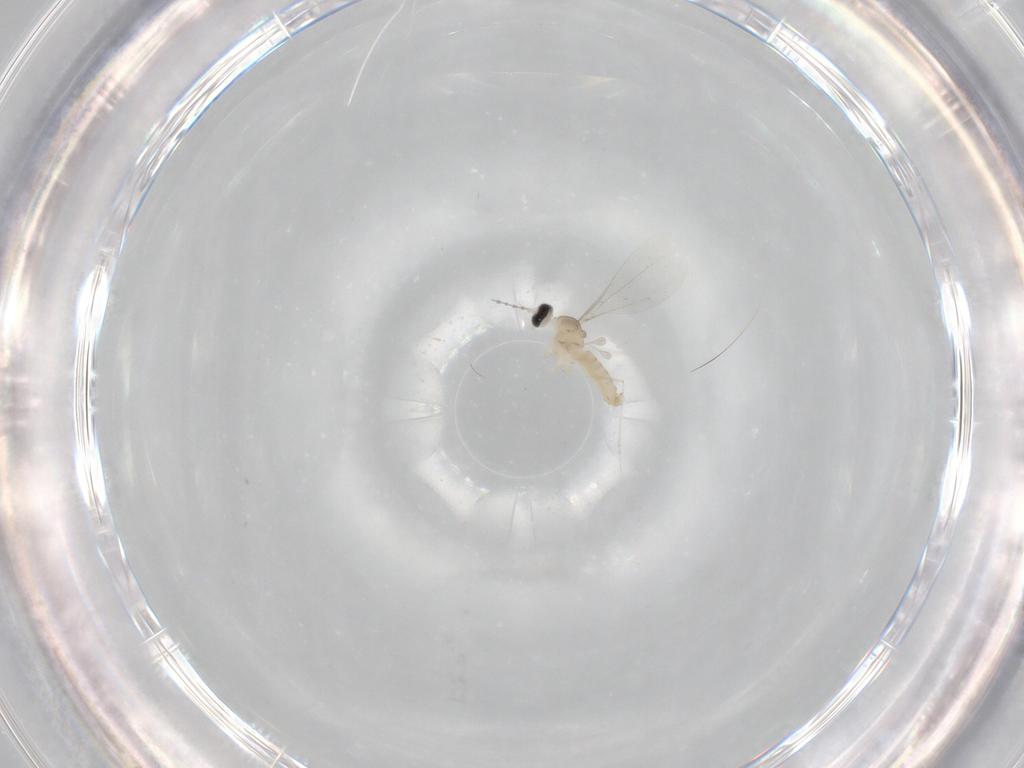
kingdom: Animalia
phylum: Arthropoda
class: Insecta
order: Diptera
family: Cecidomyiidae
